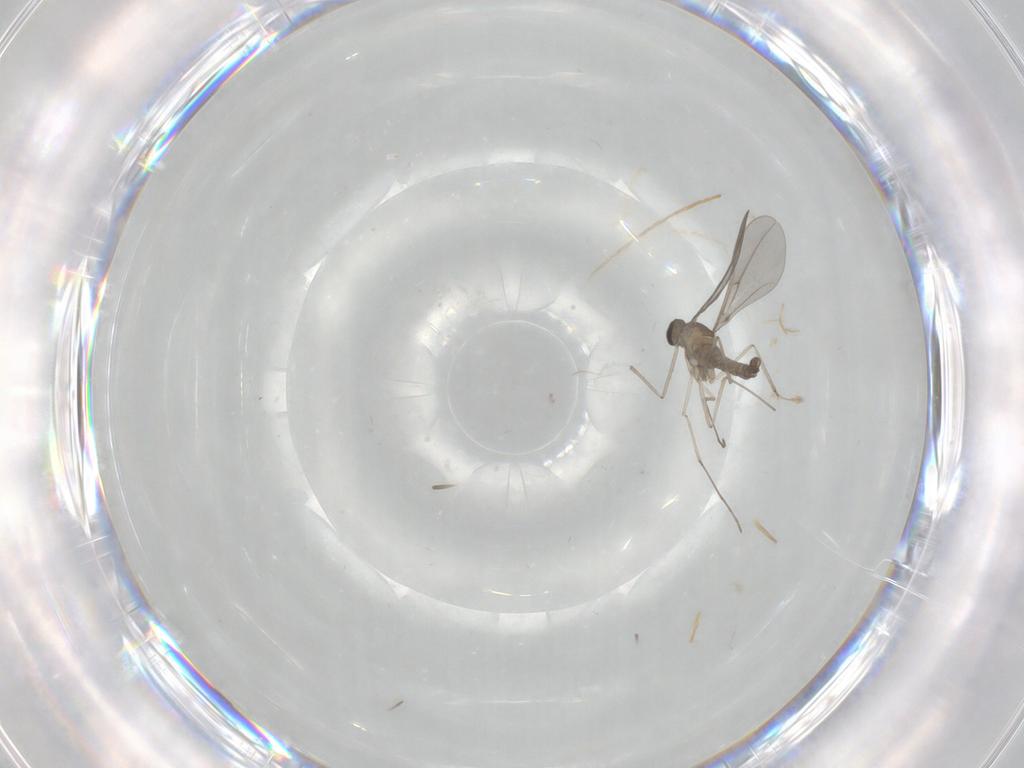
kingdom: Animalia
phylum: Arthropoda
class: Insecta
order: Diptera
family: Cecidomyiidae
